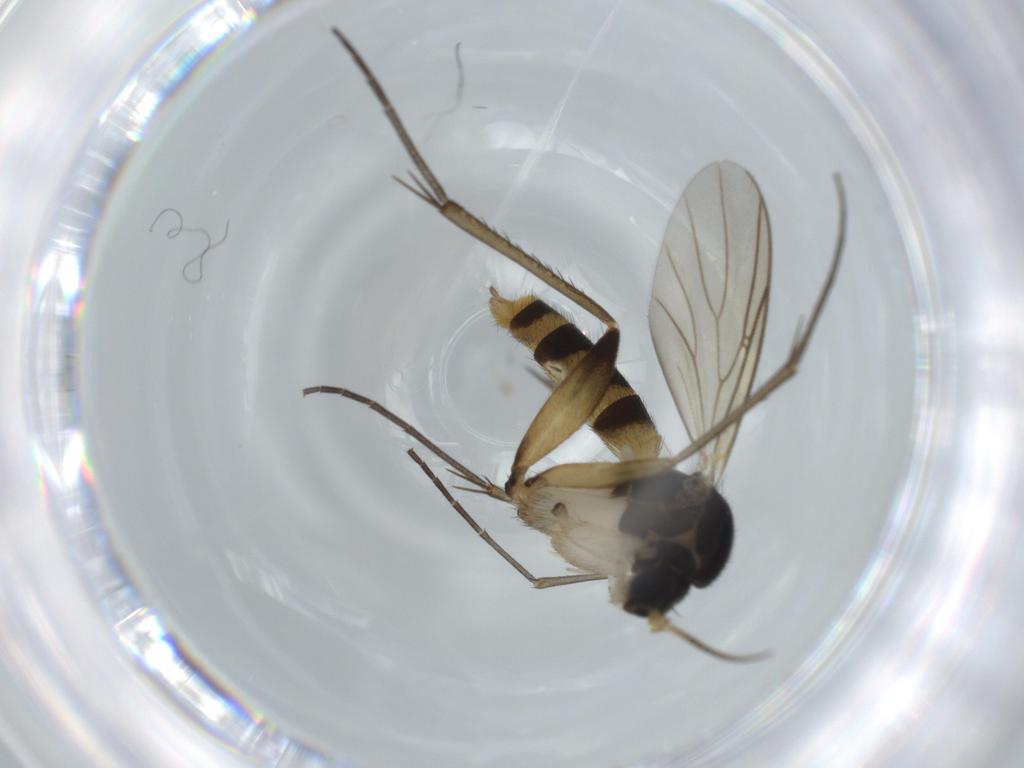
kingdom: Animalia
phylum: Arthropoda
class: Insecta
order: Diptera
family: Mycetophilidae
